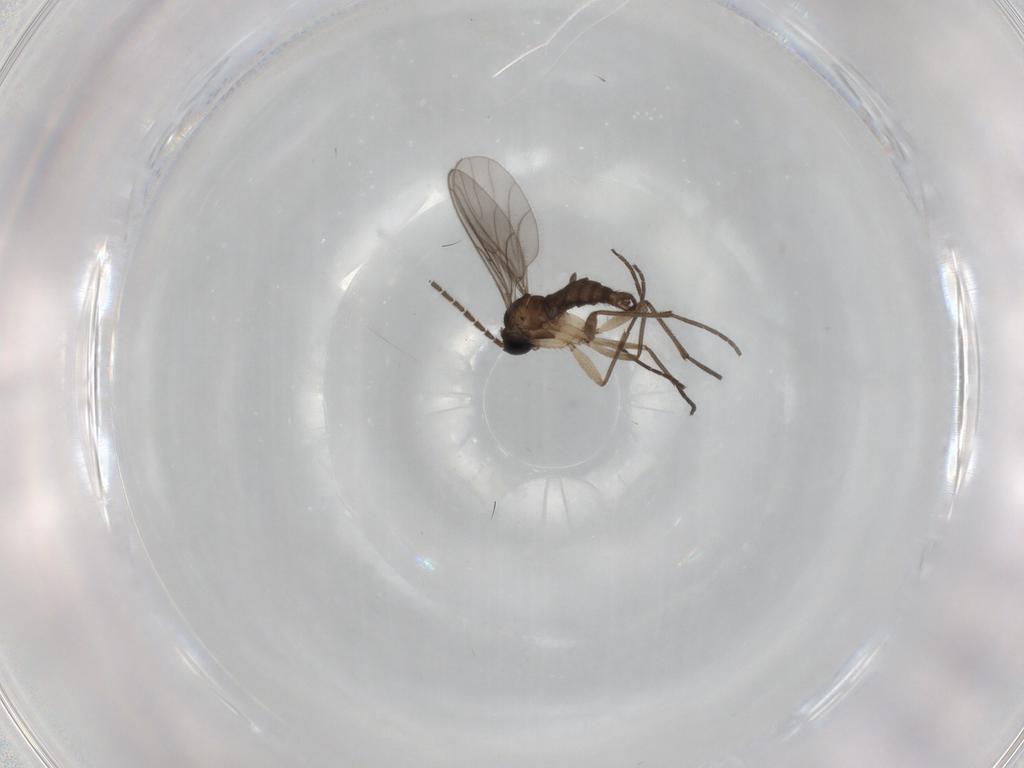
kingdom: Animalia
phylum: Arthropoda
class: Insecta
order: Diptera
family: Sciaridae
